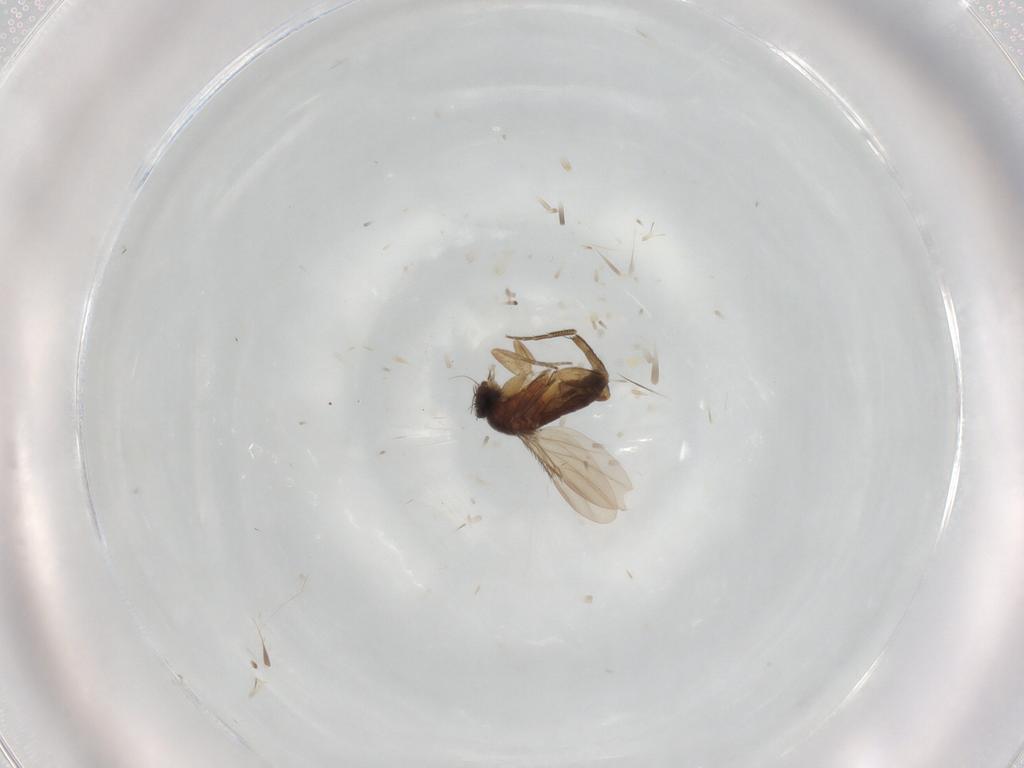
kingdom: Animalia
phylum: Arthropoda
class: Insecta
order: Diptera
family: Phoridae
